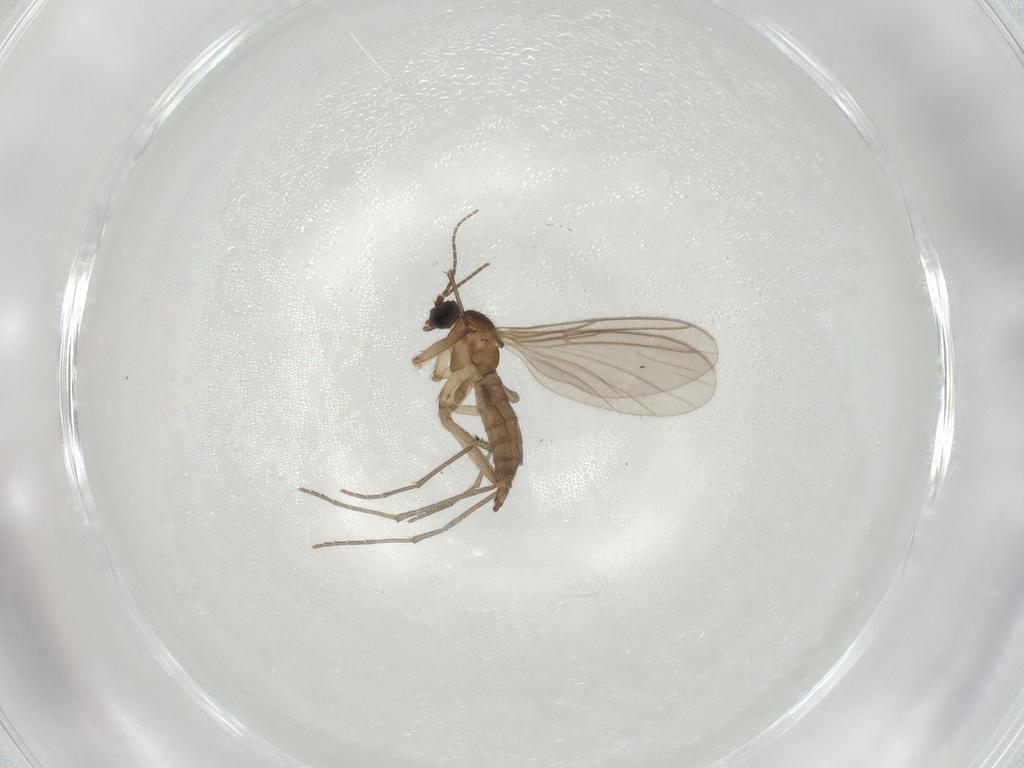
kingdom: Animalia
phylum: Arthropoda
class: Insecta
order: Diptera
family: Sciaridae
